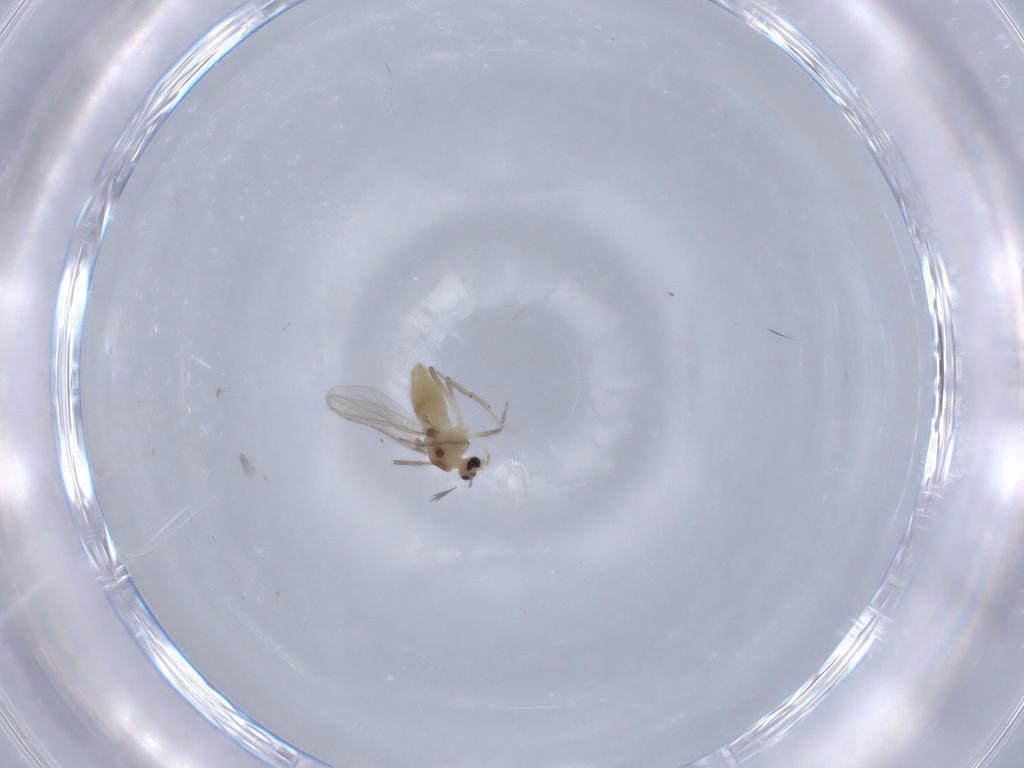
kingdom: Animalia
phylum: Arthropoda
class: Insecta
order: Diptera
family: Chironomidae
